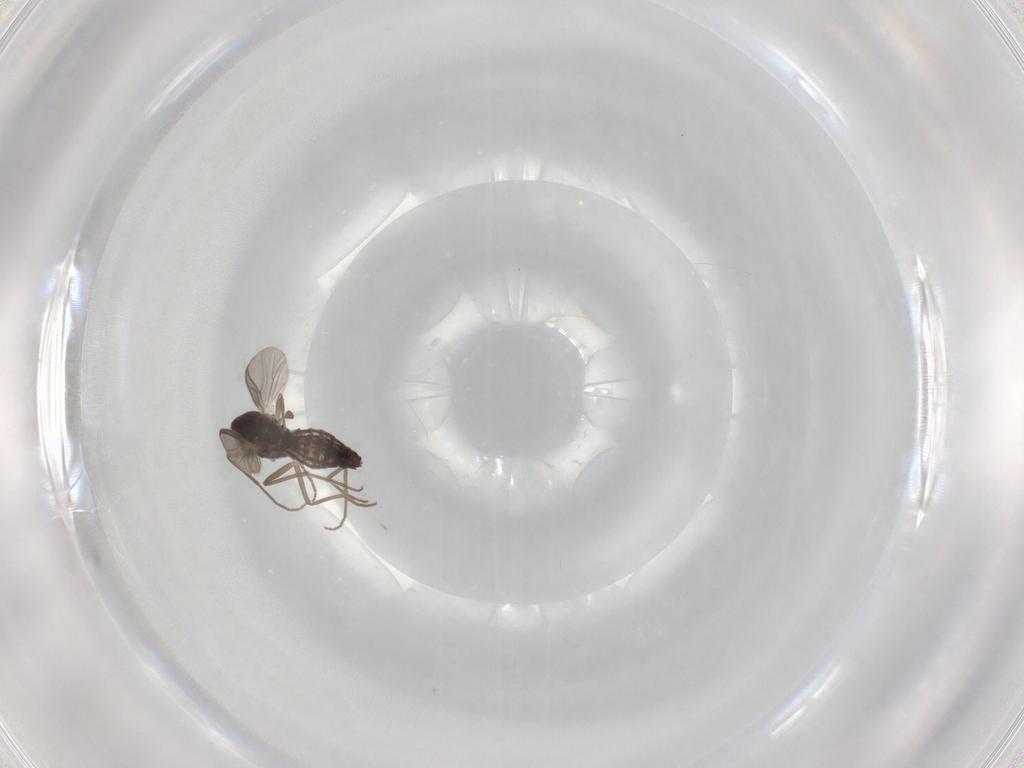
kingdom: Animalia
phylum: Arthropoda
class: Insecta
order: Diptera
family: Chironomidae
